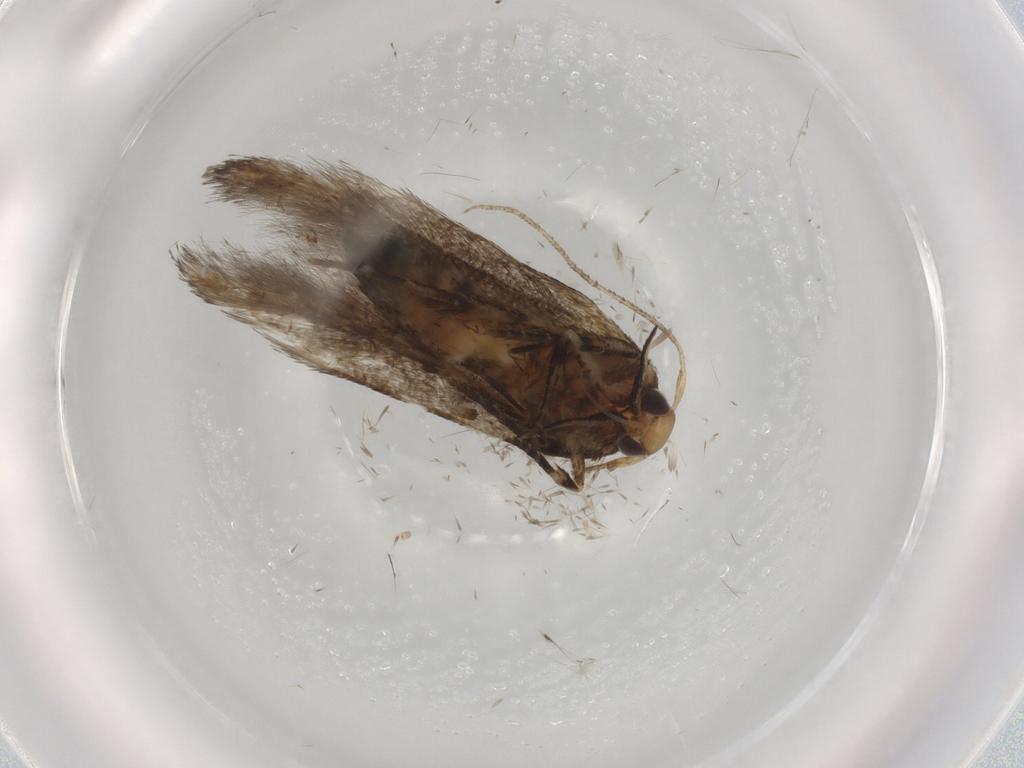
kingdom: Animalia
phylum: Arthropoda
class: Insecta
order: Lepidoptera
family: Cosmopterigidae
